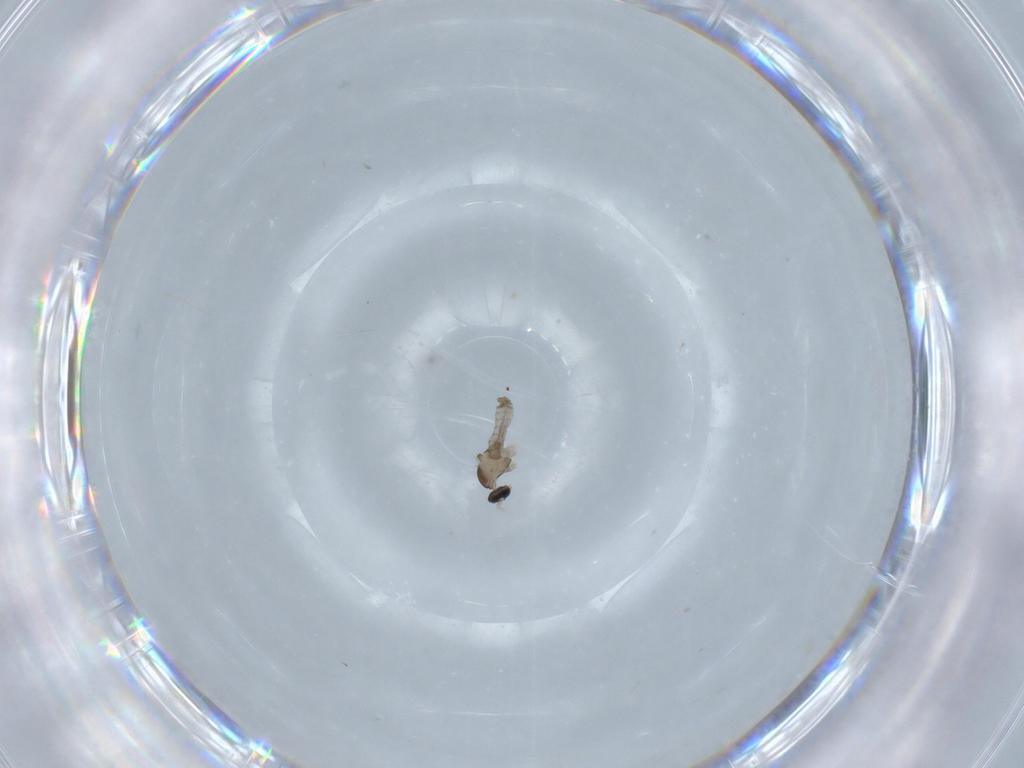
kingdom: Animalia
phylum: Arthropoda
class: Insecta
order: Diptera
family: Cecidomyiidae
